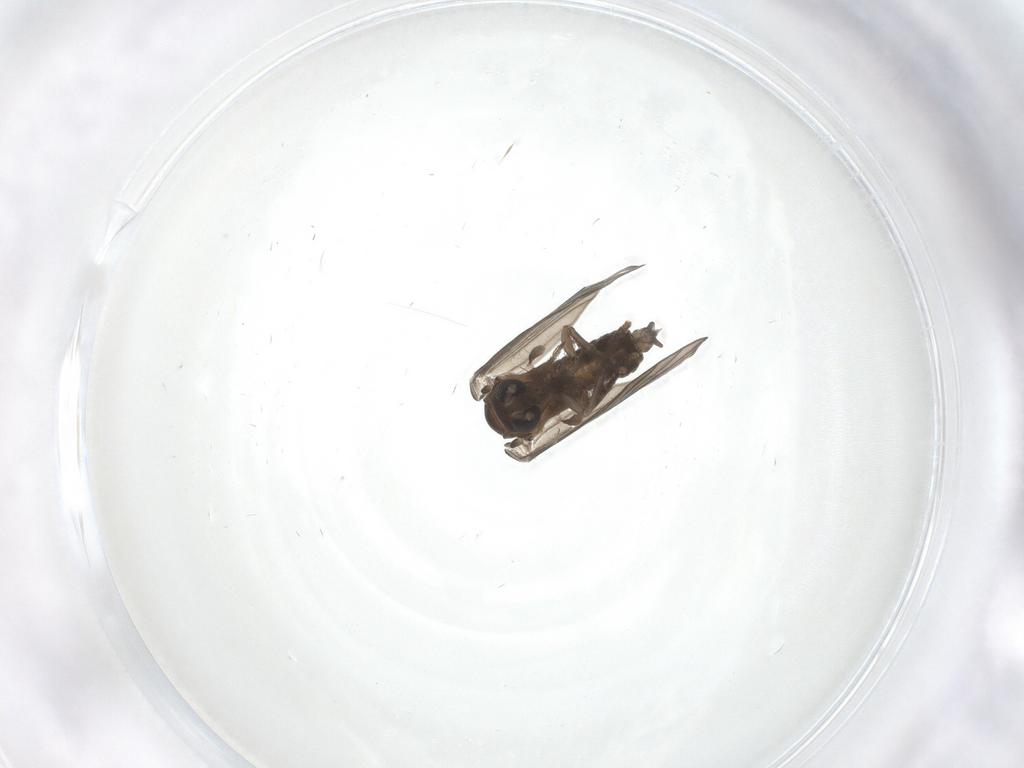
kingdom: Animalia
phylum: Arthropoda
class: Insecta
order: Diptera
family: Psychodidae
